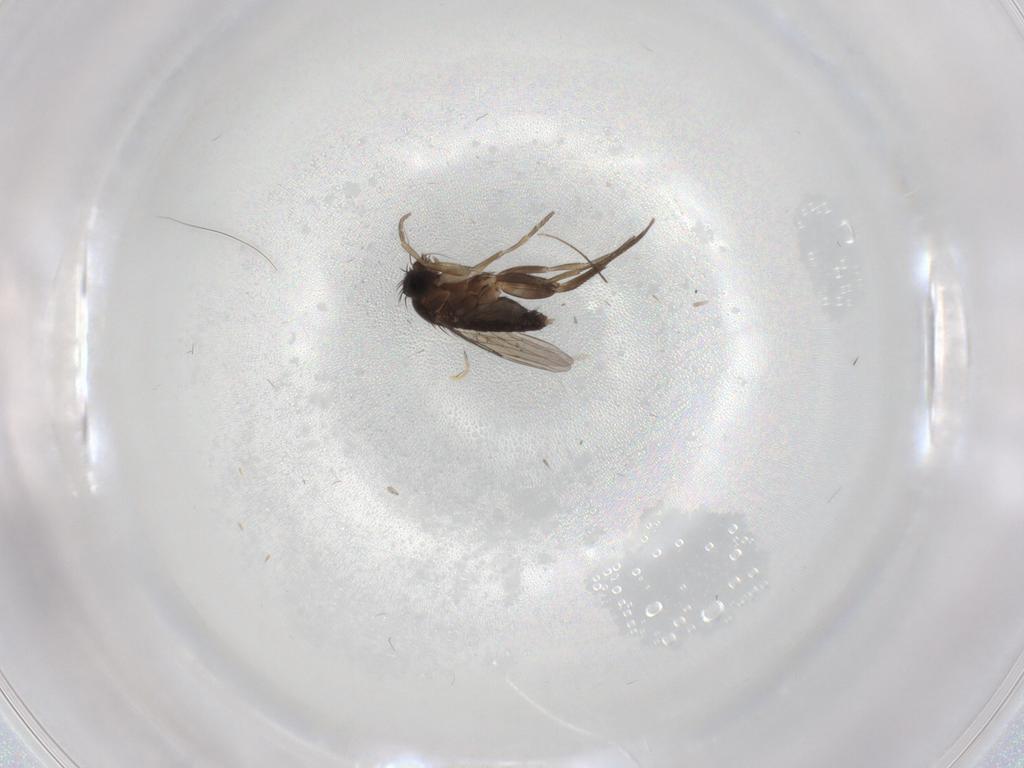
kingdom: Animalia
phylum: Arthropoda
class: Insecta
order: Diptera
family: Phoridae
